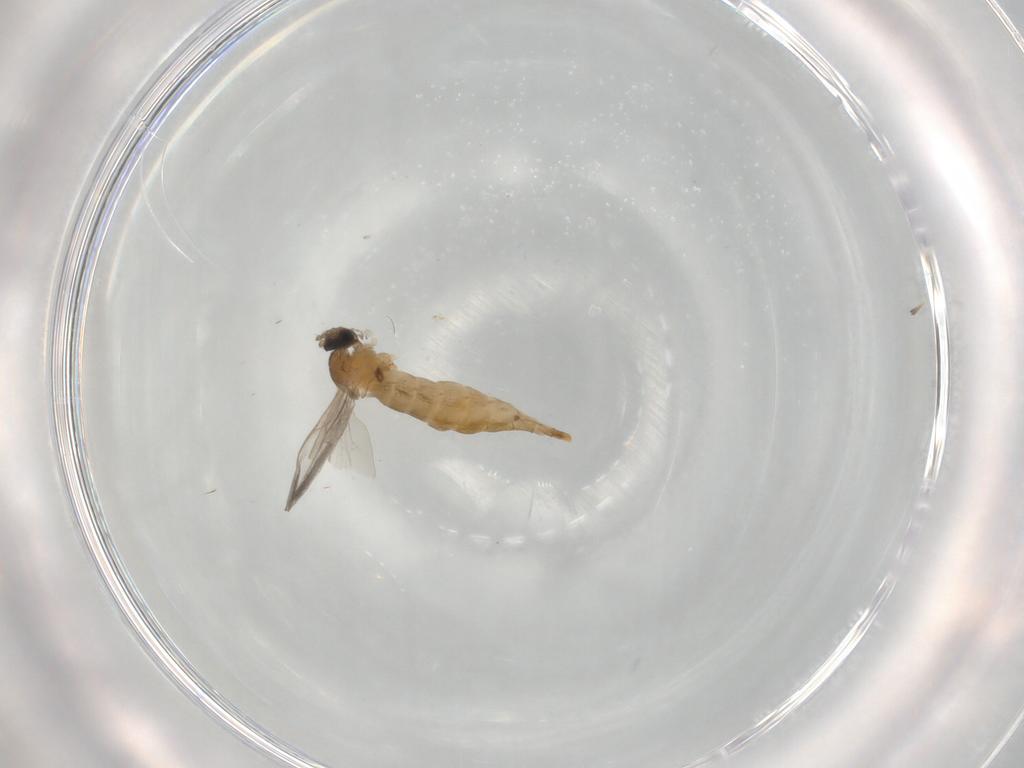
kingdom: Animalia
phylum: Arthropoda
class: Insecta
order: Diptera
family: Cecidomyiidae
